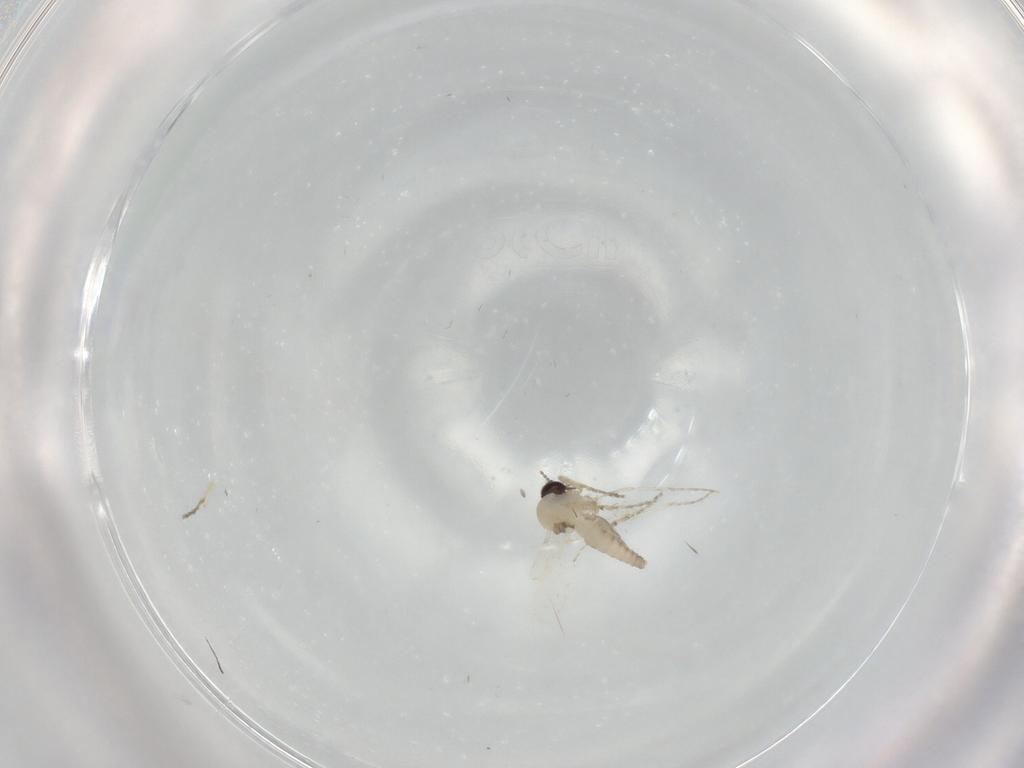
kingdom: Animalia
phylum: Arthropoda
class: Insecta
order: Diptera
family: Ceratopogonidae
